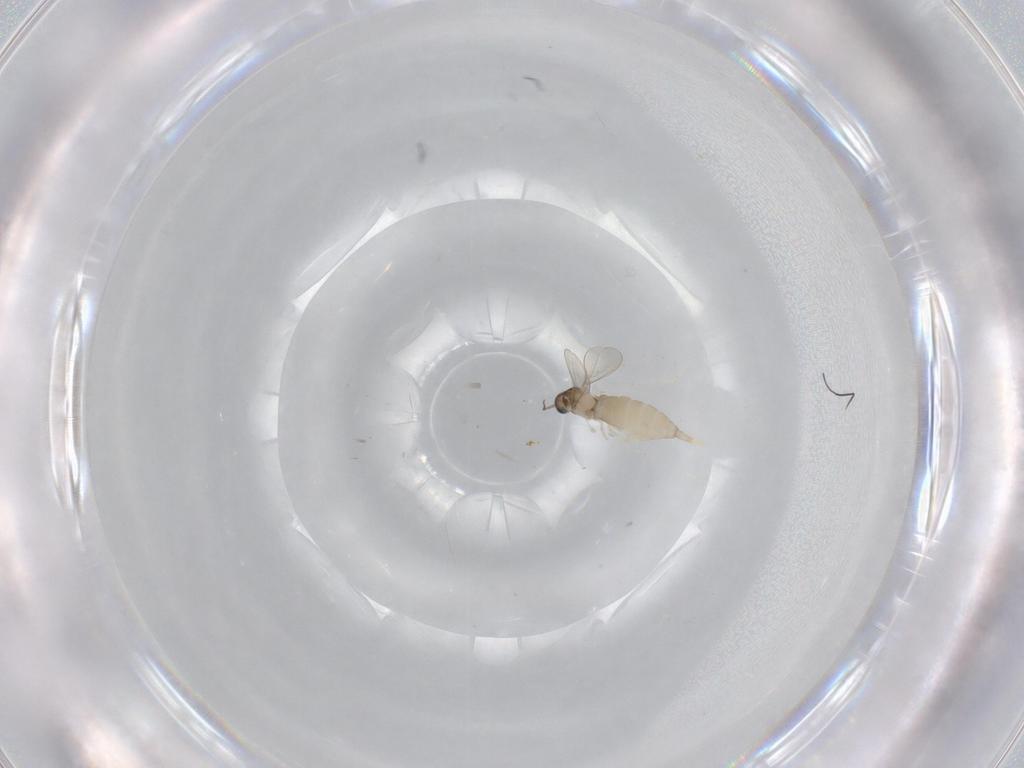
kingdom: Animalia
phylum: Arthropoda
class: Insecta
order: Diptera
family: Cecidomyiidae
